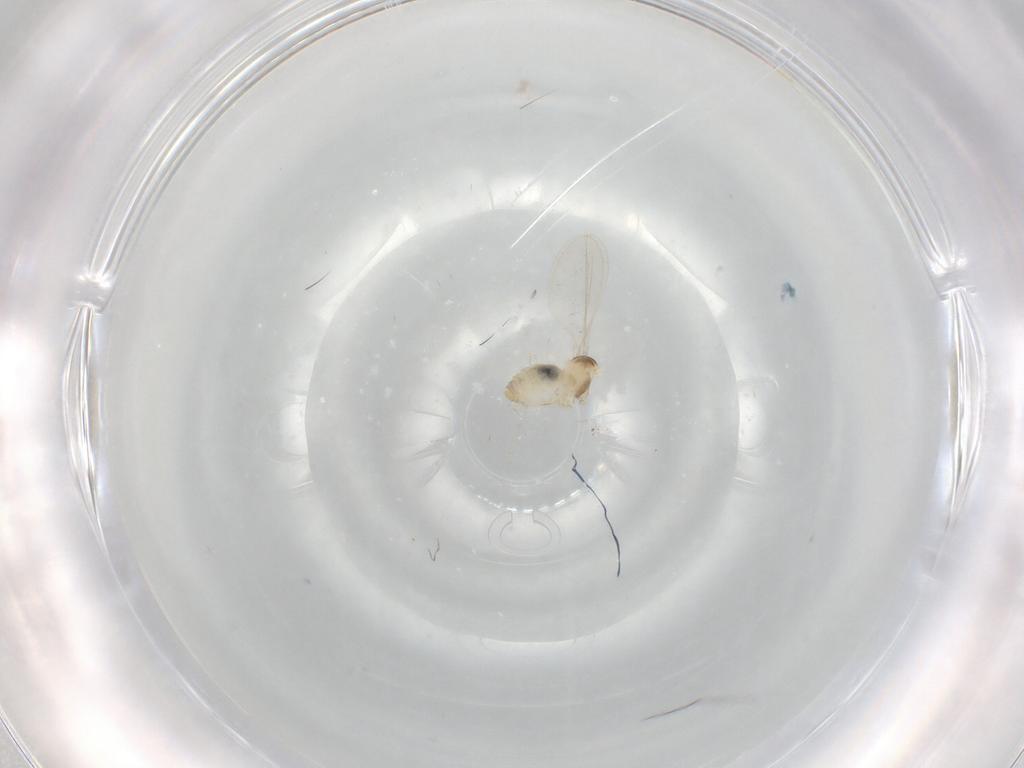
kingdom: Animalia
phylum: Arthropoda
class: Insecta
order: Diptera
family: Cecidomyiidae
